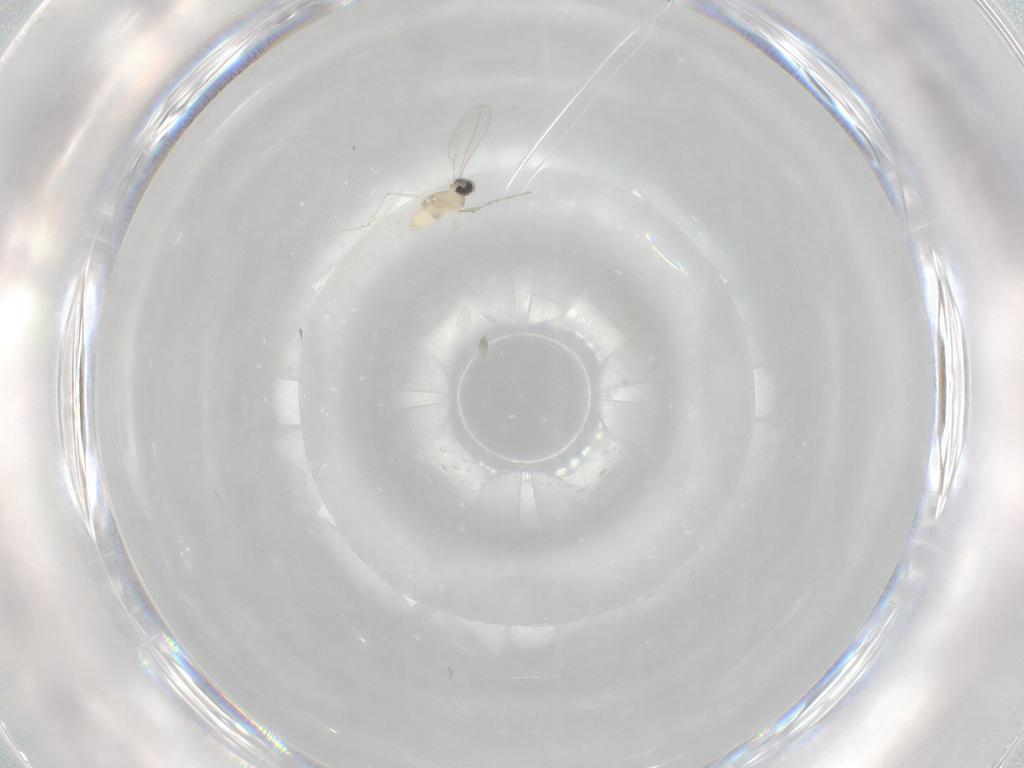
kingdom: Animalia
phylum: Arthropoda
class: Insecta
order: Diptera
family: Cecidomyiidae
